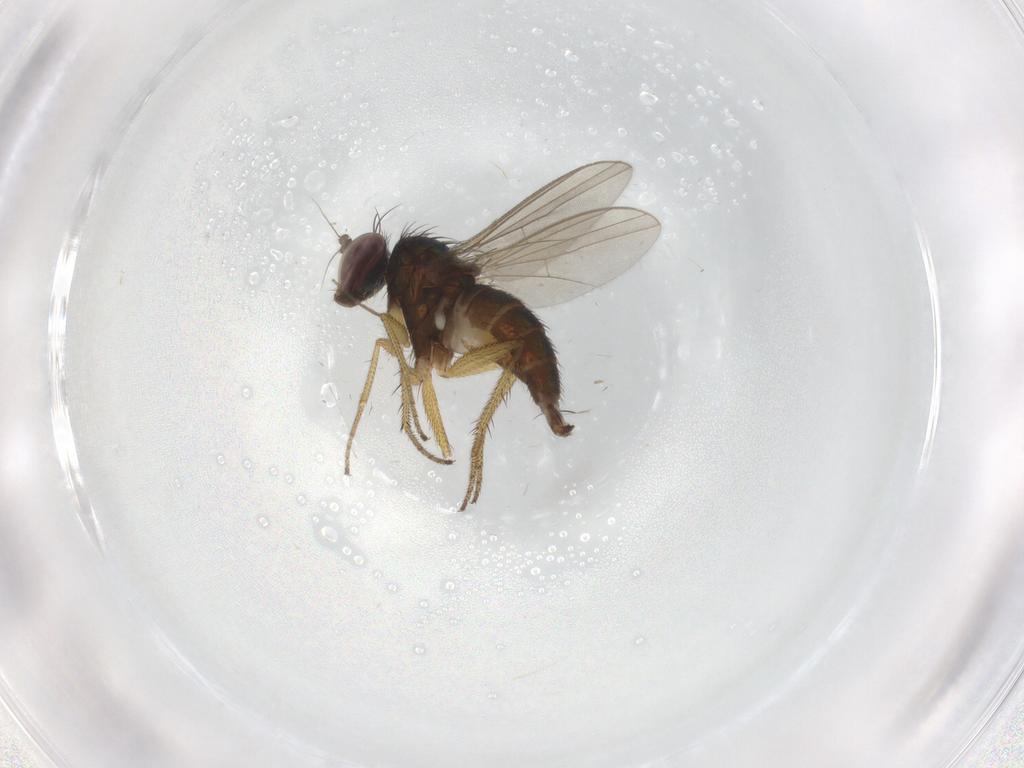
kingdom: Animalia
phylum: Arthropoda
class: Insecta
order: Diptera
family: Chironomidae
